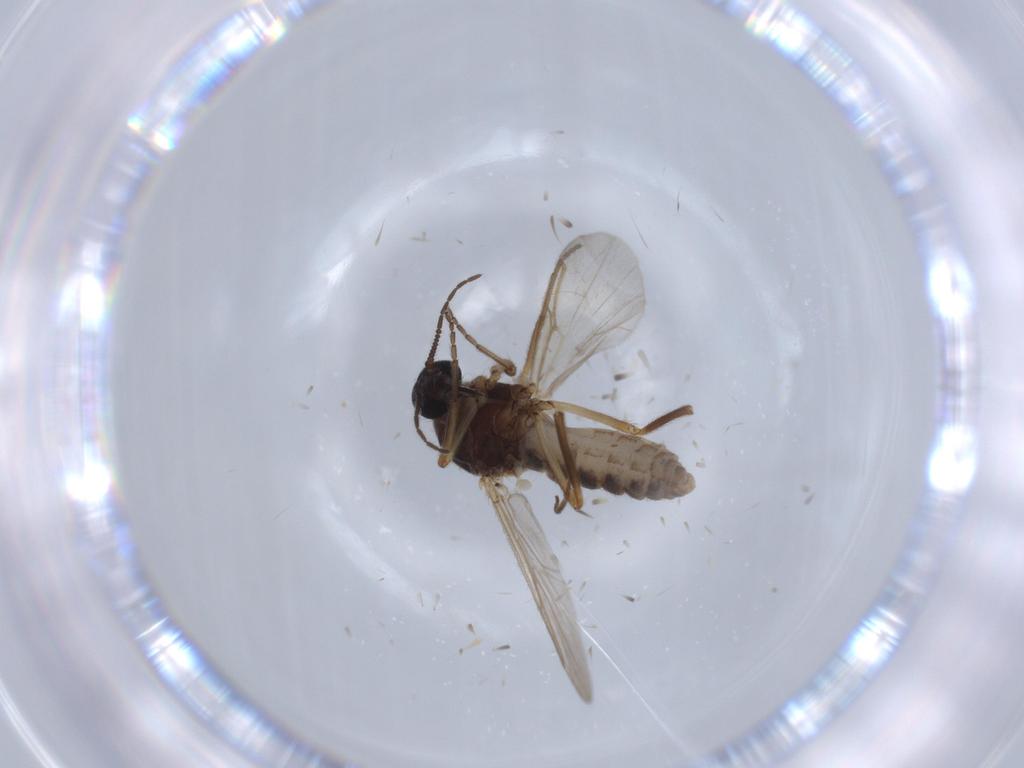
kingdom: Animalia
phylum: Arthropoda
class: Insecta
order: Diptera
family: Ceratopogonidae
